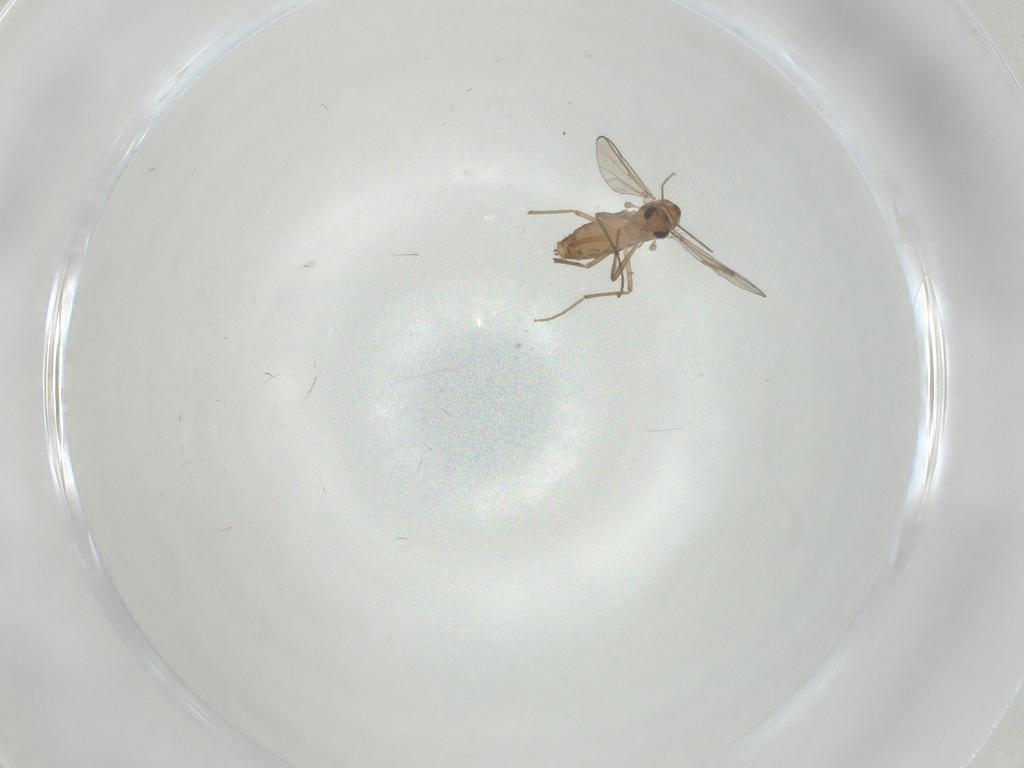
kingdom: Animalia
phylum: Arthropoda
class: Insecta
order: Diptera
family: Chironomidae
